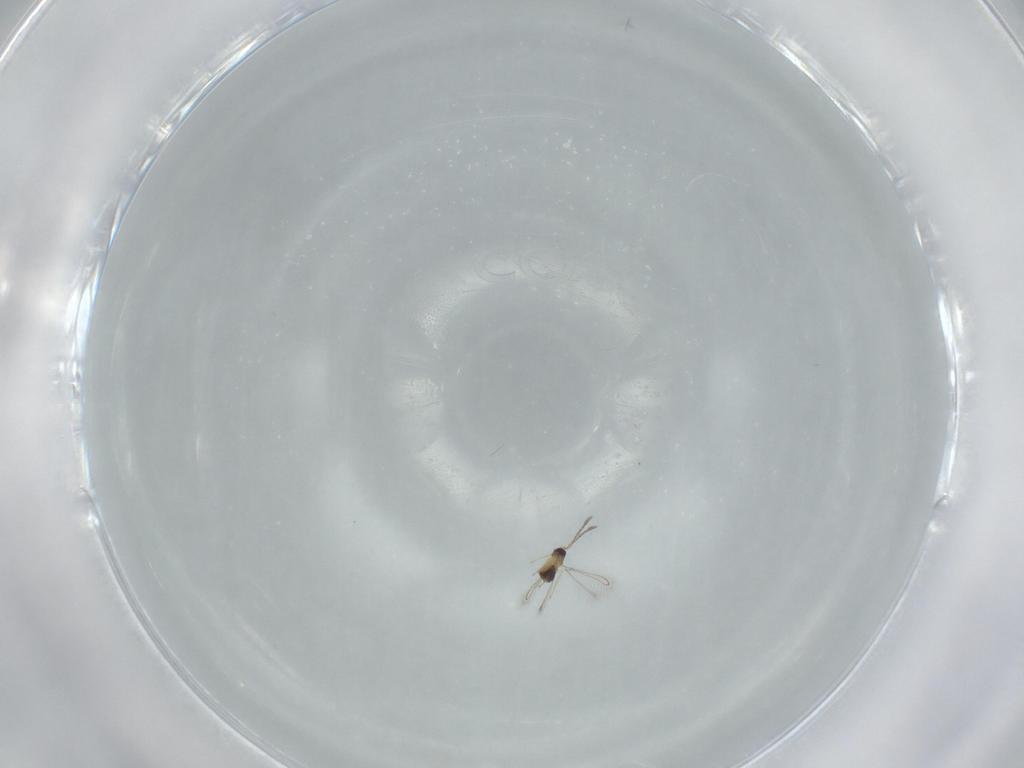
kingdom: Animalia
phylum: Arthropoda
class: Insecta
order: Hymenoptera
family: Mymaridae
